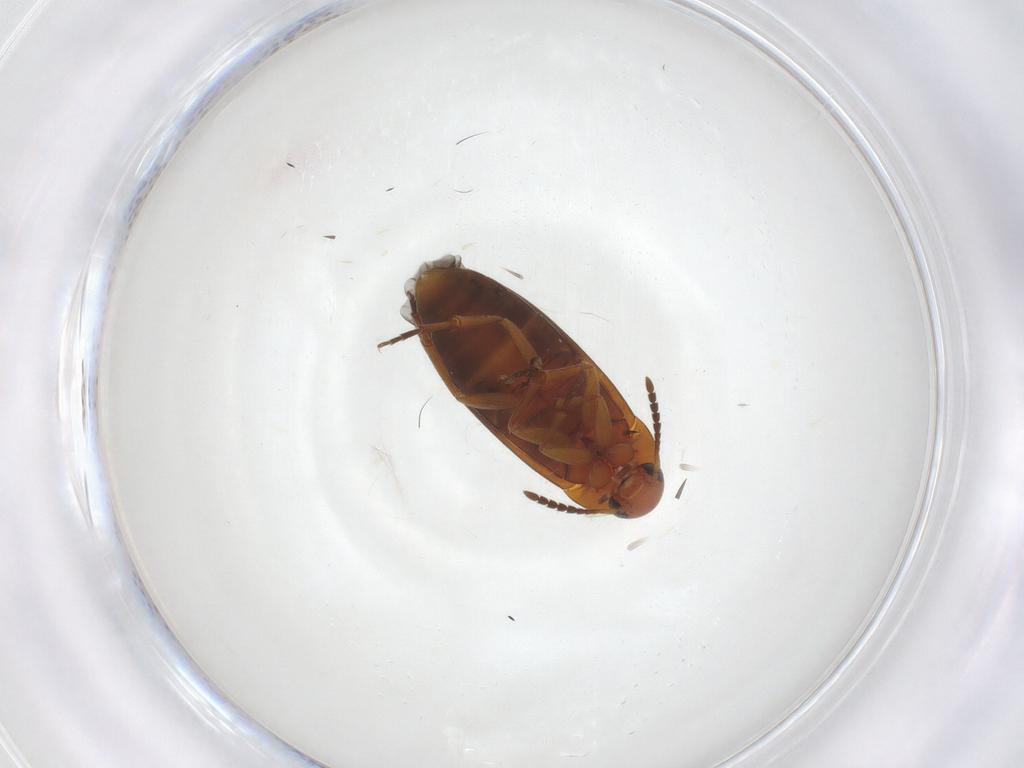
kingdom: Animalia
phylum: Arthropoda
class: Insecta
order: Coleoptera
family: Scraptiidae
